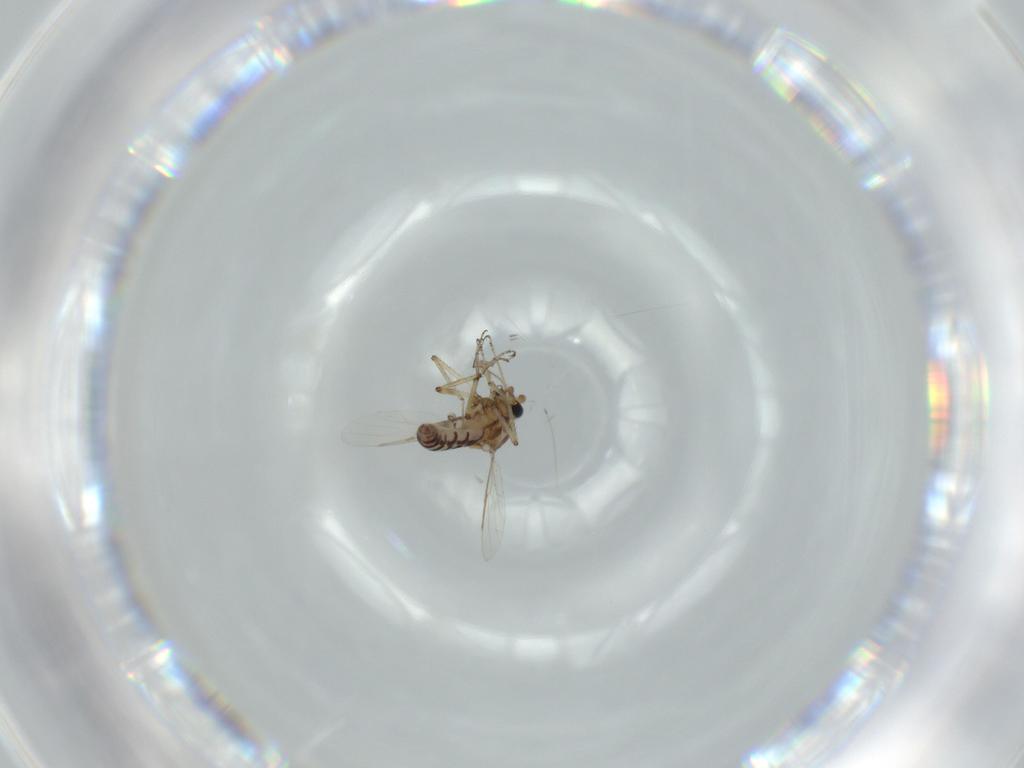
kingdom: Animalia
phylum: Arthropoda
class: Insecta
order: Diptera
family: Ceratopogonidae
